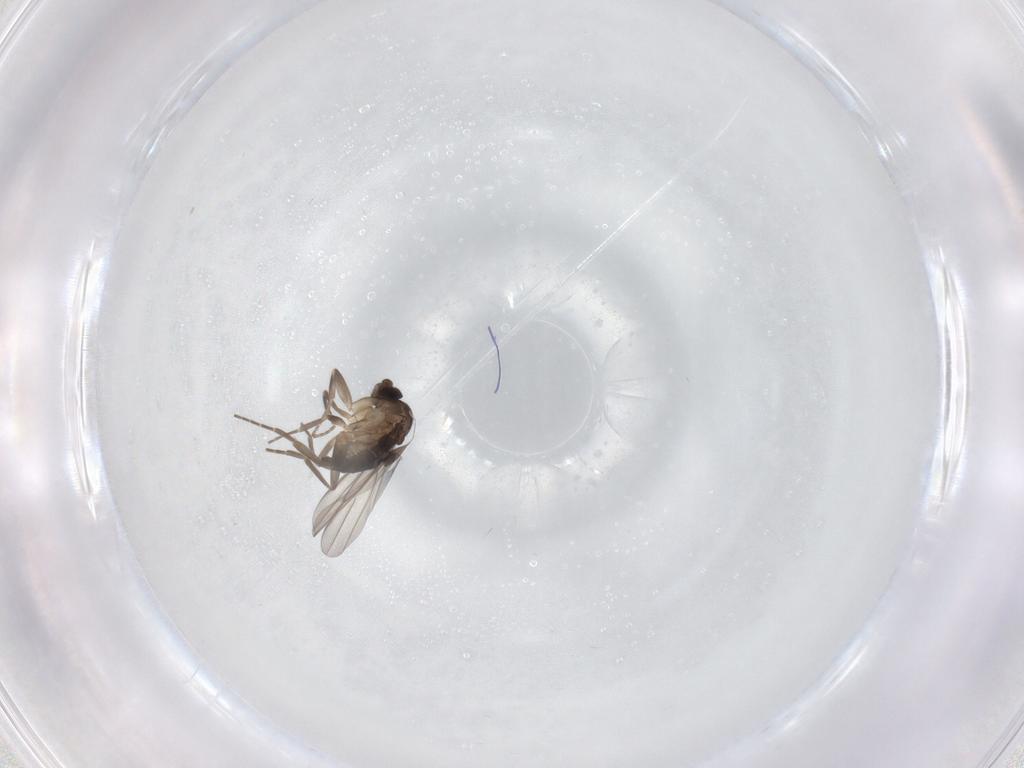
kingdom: Animalia
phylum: Arthropoda
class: Insecta
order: Diptera
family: Phoridae
